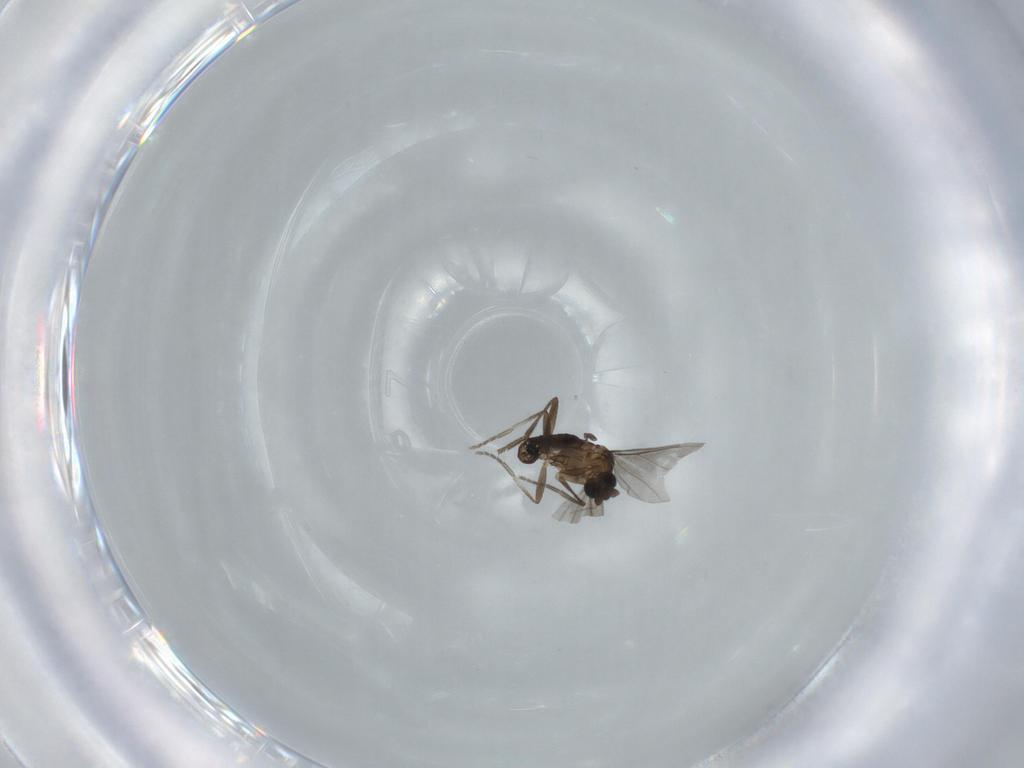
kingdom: Animalia
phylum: Arthropoda
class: Insecta
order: Diptera
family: Phoridae
